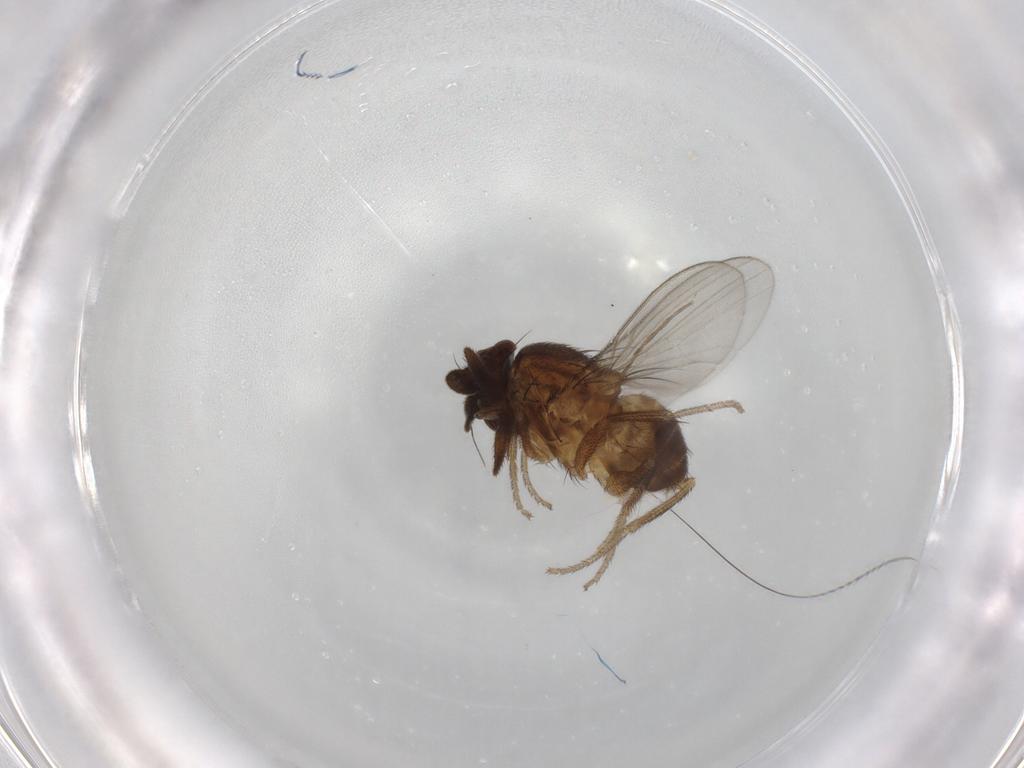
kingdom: Animalia
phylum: Arthropoda
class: Insecta
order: Diptera
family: Milichiidae
